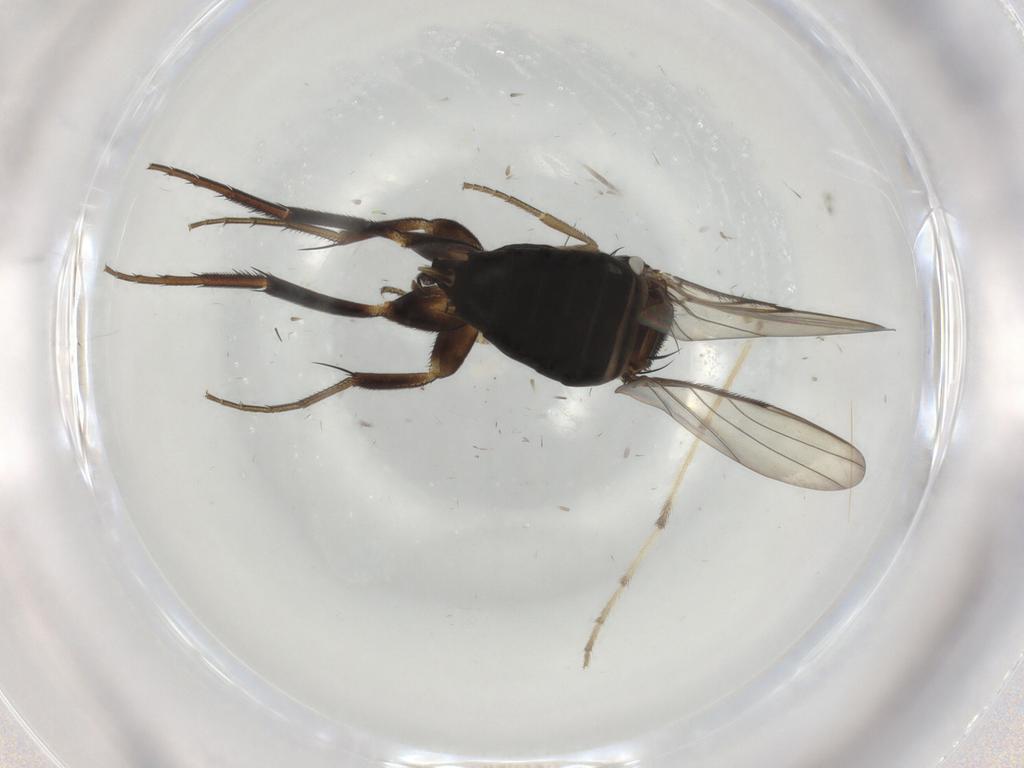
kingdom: Animalia
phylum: Arthropoda
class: Insecta
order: Diptera
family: Phoridae
